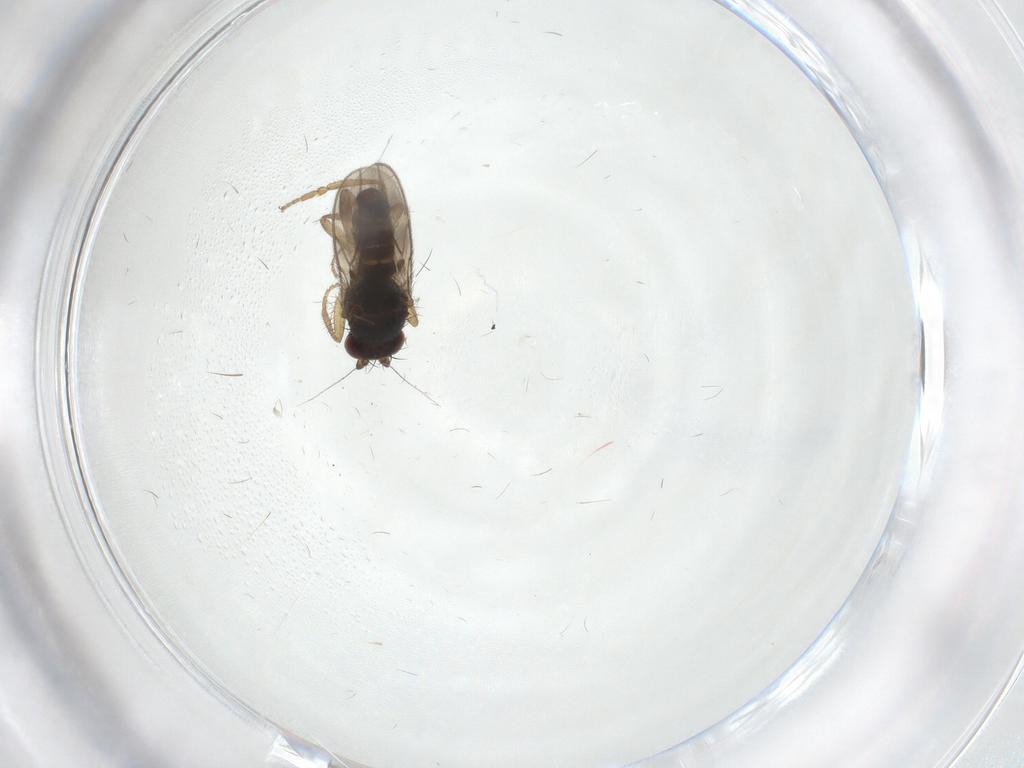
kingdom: Animalia
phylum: Arthropoda
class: Insecta
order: Diptera
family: Sphaeroceridae
